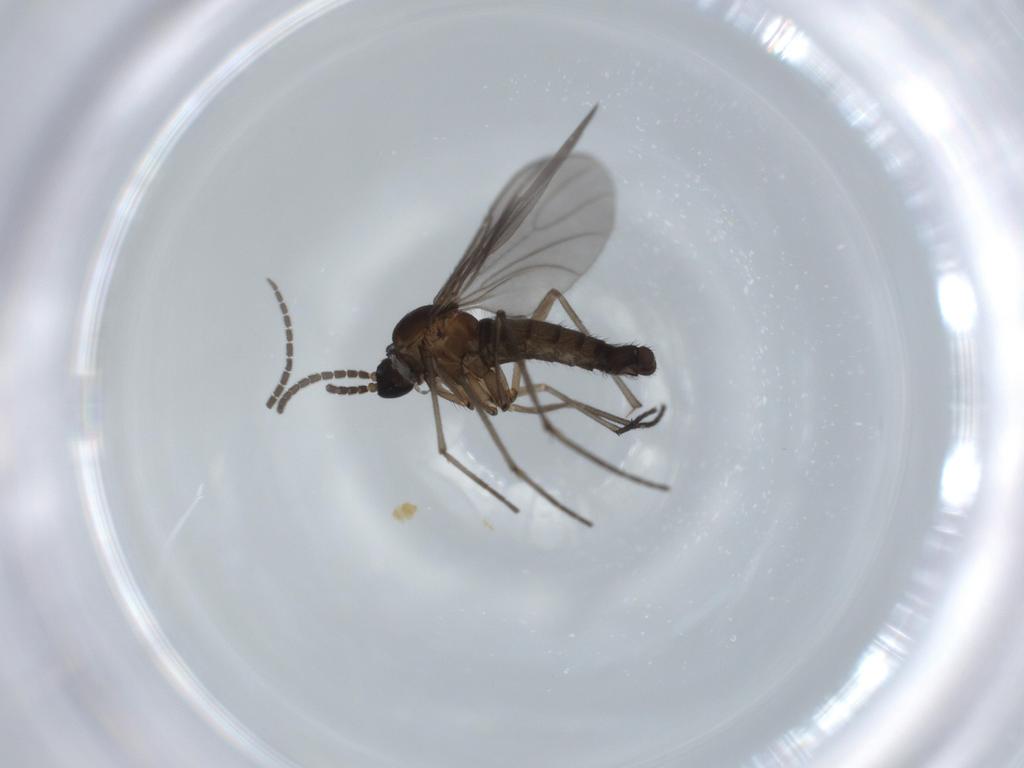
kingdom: Animalia
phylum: Arthropoda
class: Insecta
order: Diptera
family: Sciaridae
